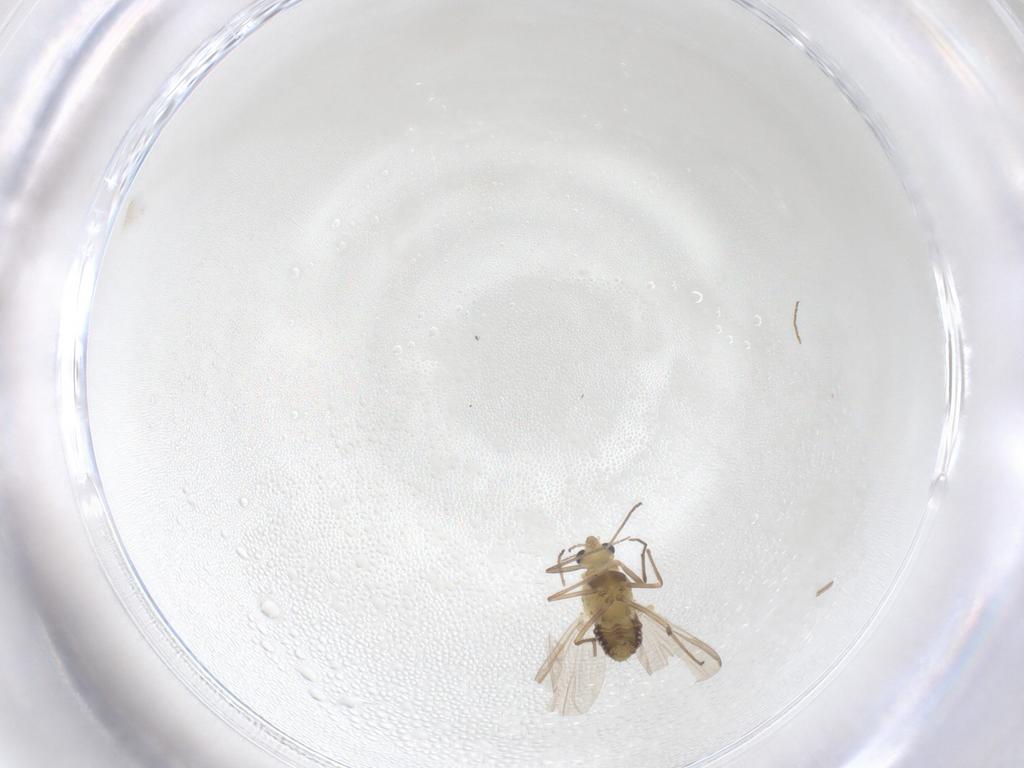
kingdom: Animalia
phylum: Arthropoda
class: Insecta
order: Diptera
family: Chironomidae
